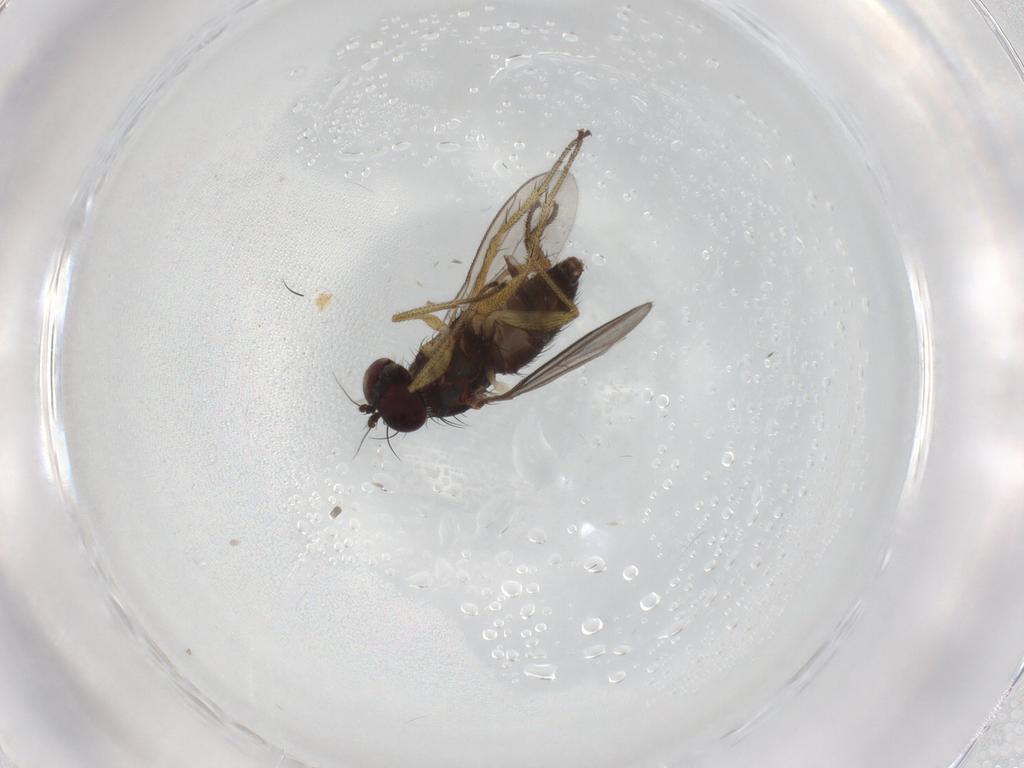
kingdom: Animalia
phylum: Arthropoda
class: Insecta
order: Diptera
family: Dolichopodidae
